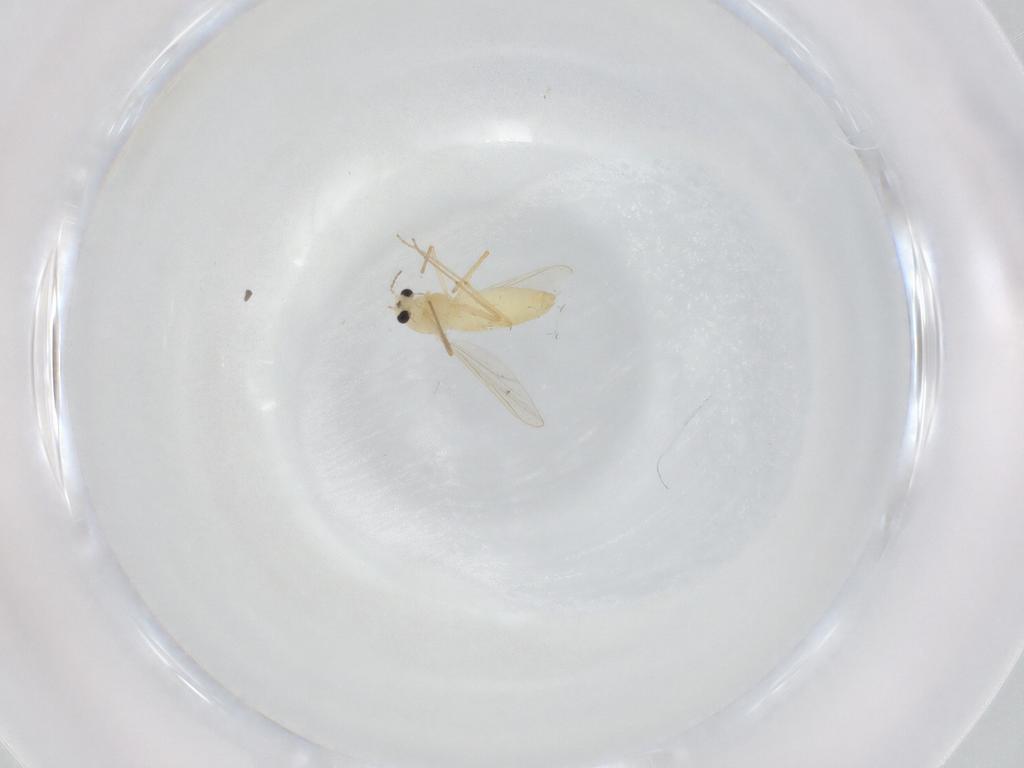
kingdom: Animalia
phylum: Arthropoda
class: Insecta
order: Diptera
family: Chironomidae
